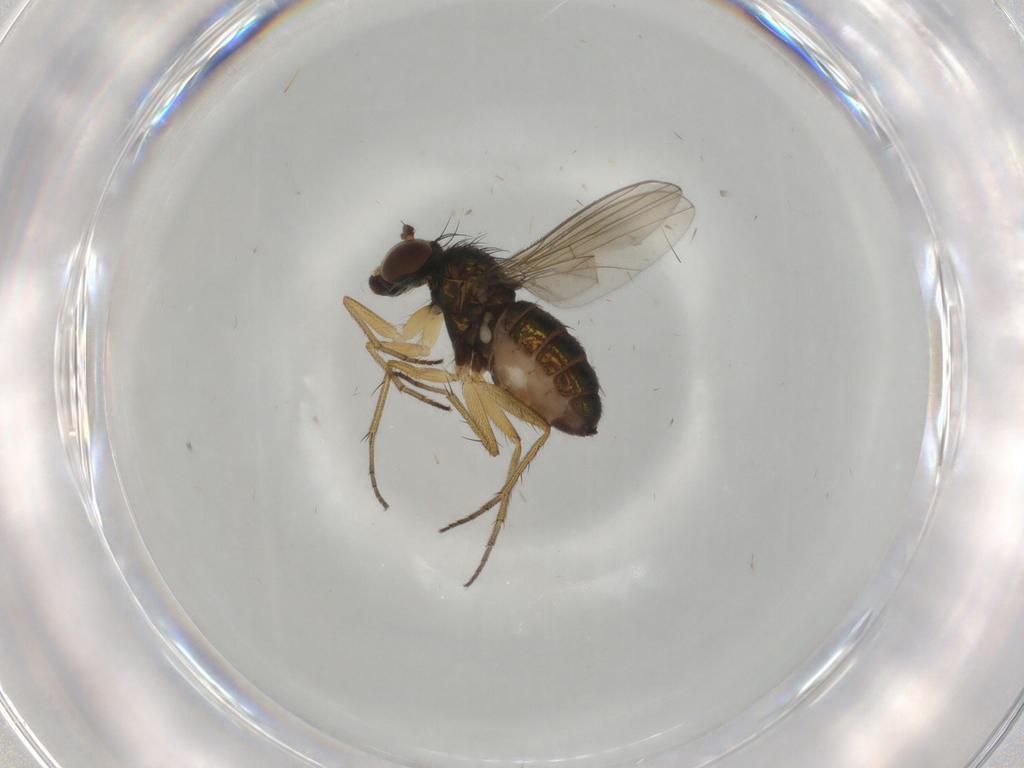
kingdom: Animalia
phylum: Arthropoda
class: Insecta
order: Diptera
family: Dolichopodidae
